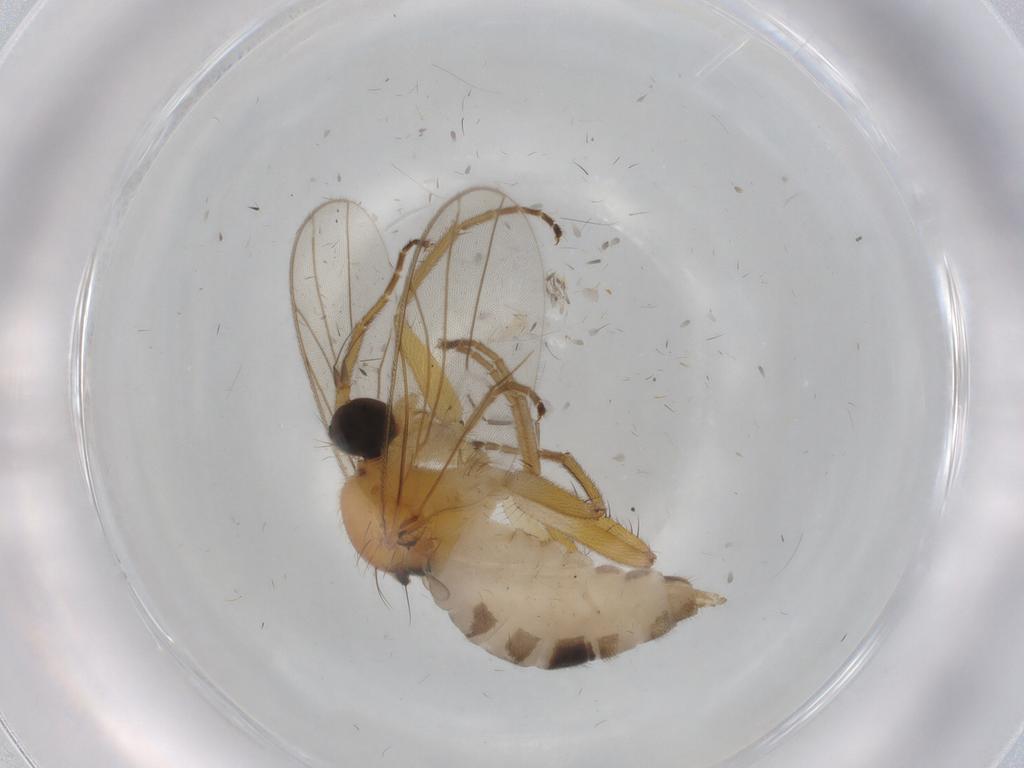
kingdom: Animalia
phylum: Arthropoda
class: Insecta
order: Diptera
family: Hybotidae
